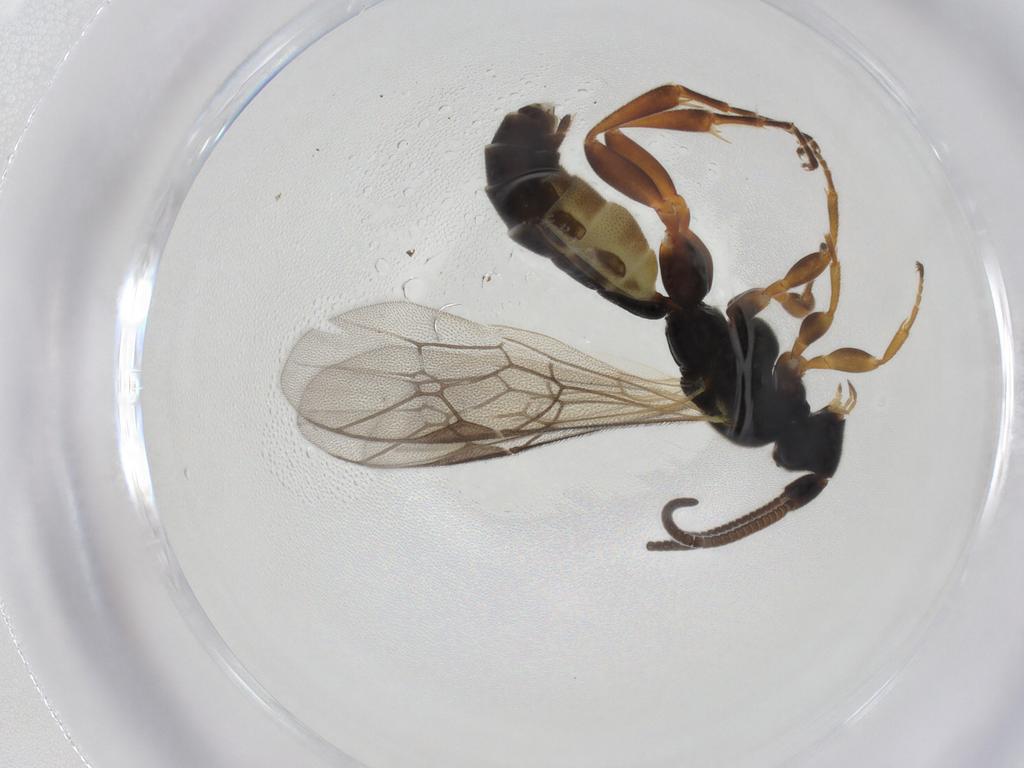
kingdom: Animalia
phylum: Arthropoda
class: Insecta
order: Hymenoptera
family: Ichneumonidae
